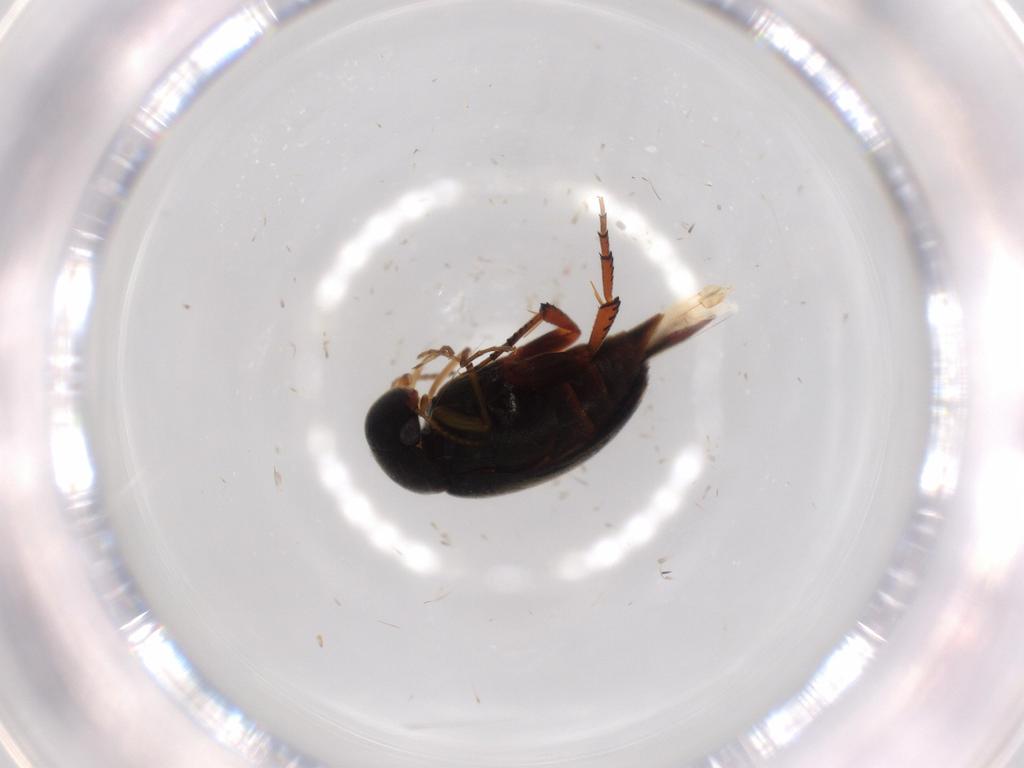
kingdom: Animalia
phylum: Arthropoda
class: Insecta
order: Coleoptera
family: Mordellidae
